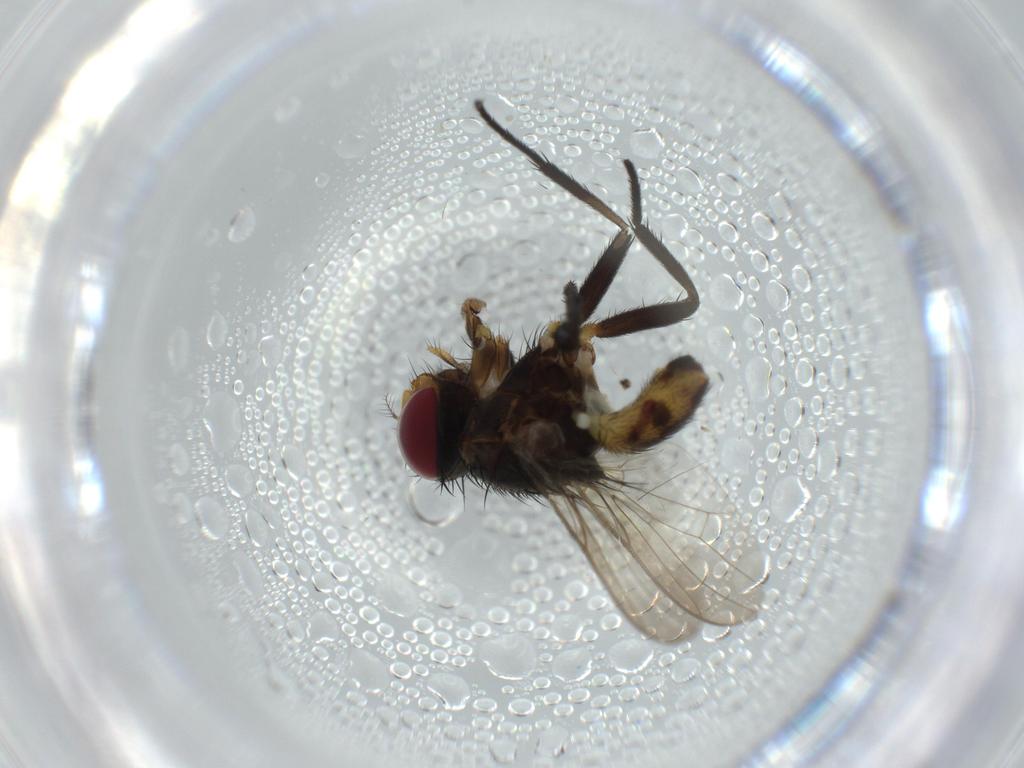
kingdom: Animalia
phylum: Arthropoda
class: Insecta
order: Diptera
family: Anthomyiidae
